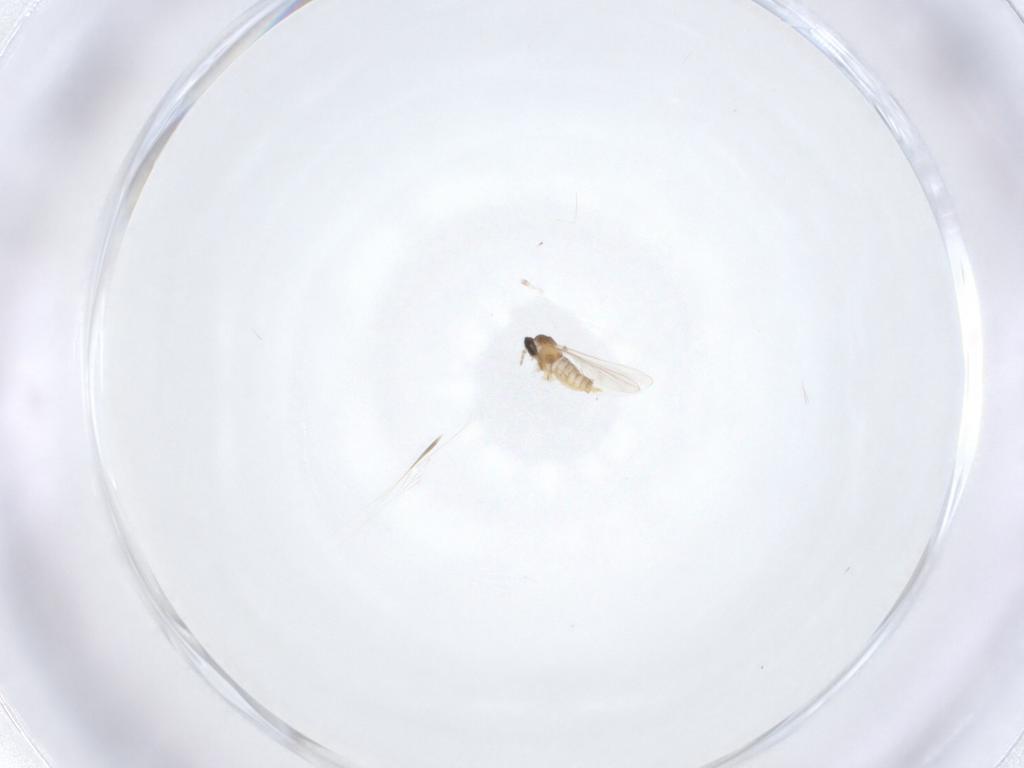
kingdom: Animalia
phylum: Arthropoda
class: Insecta
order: Diptera
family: Cecidomyiidae
